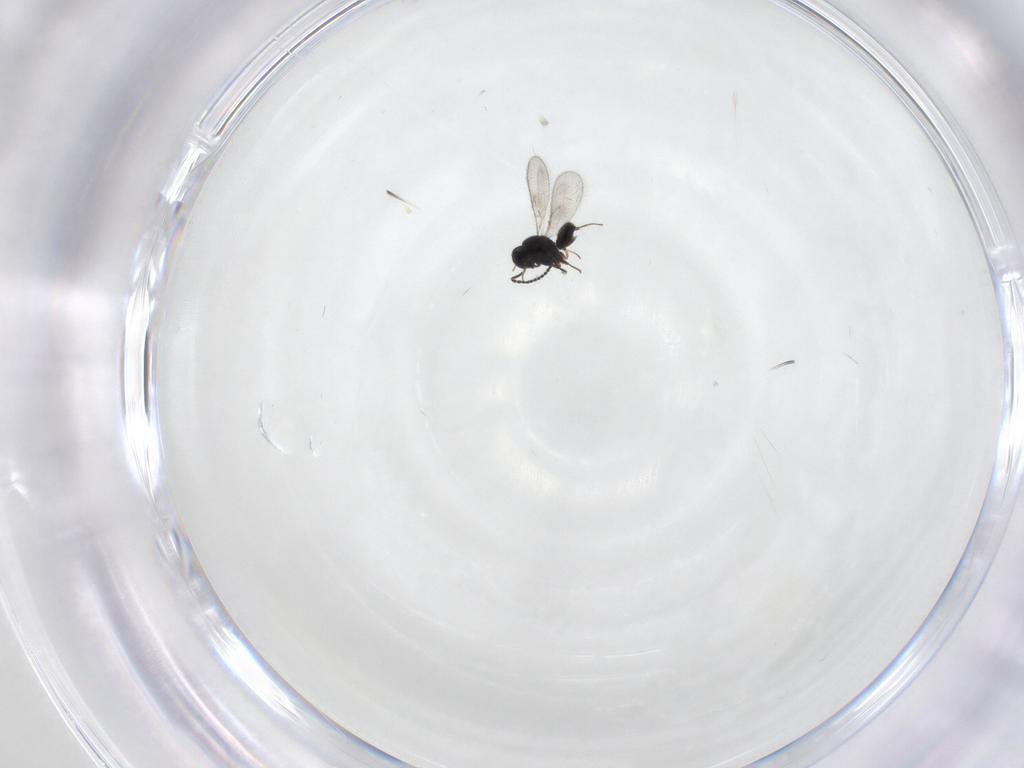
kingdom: Animalia
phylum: Arthropoda
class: Insecta
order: Hymenoptera
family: Scelionidae
